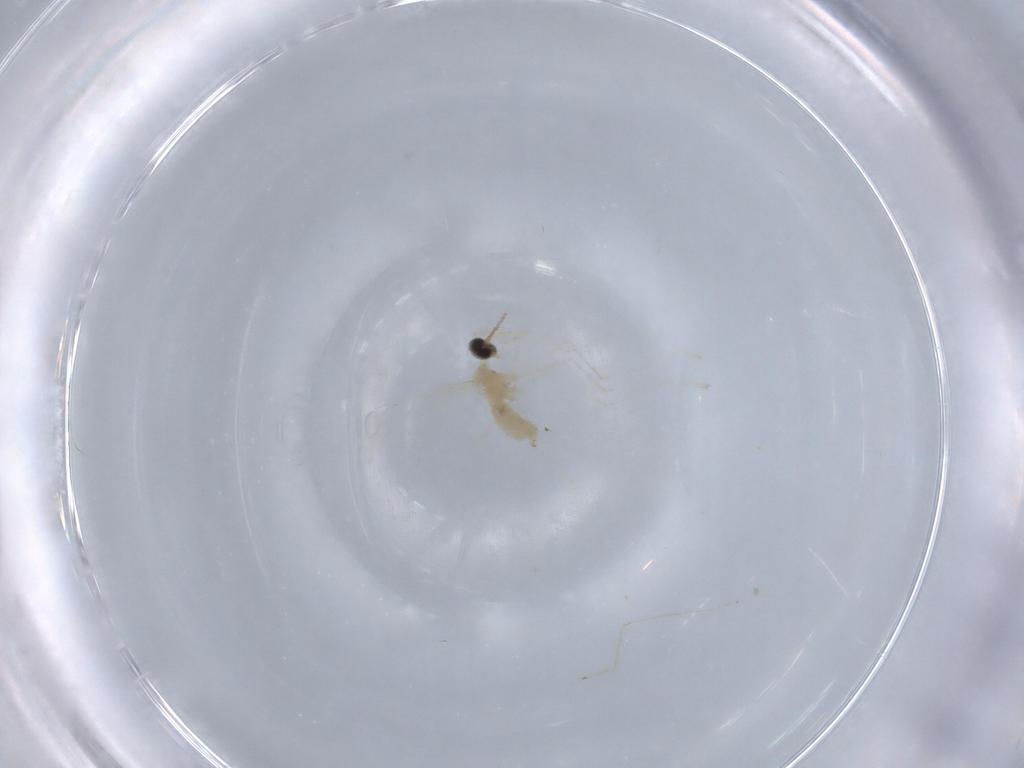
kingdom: Animalia
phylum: Arthropoda
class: Insecta
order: Diptera
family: Cecidomyiidae
